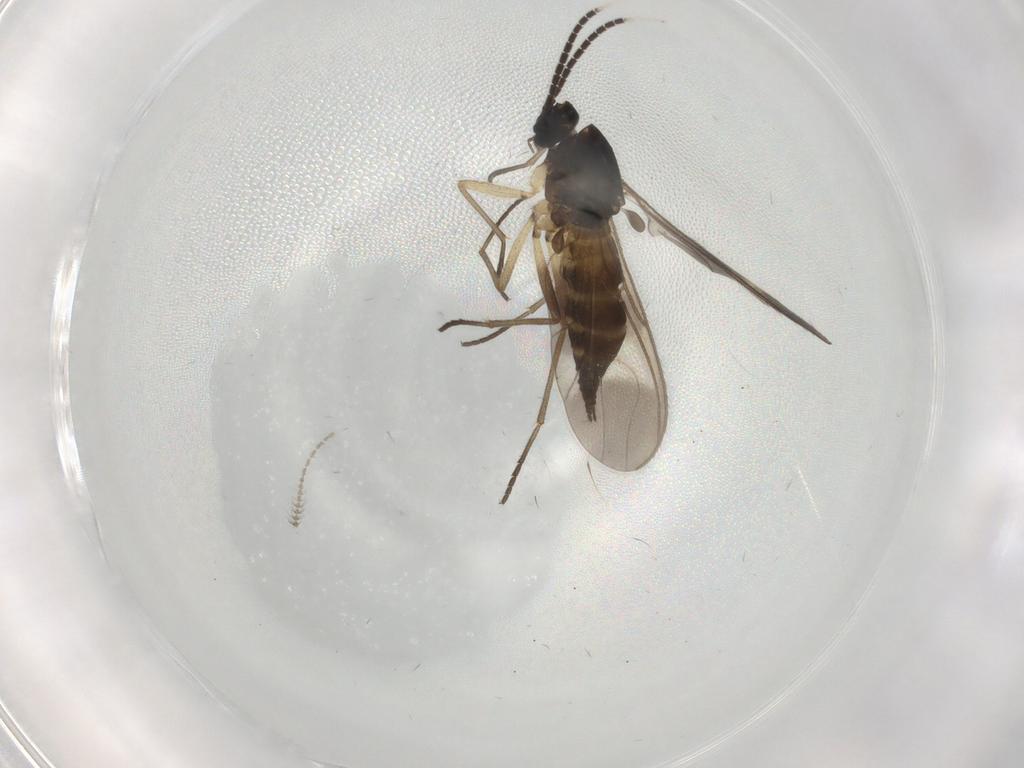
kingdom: Animalia
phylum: Arthropoda
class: Insecta
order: Diptera
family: Sciaridae
